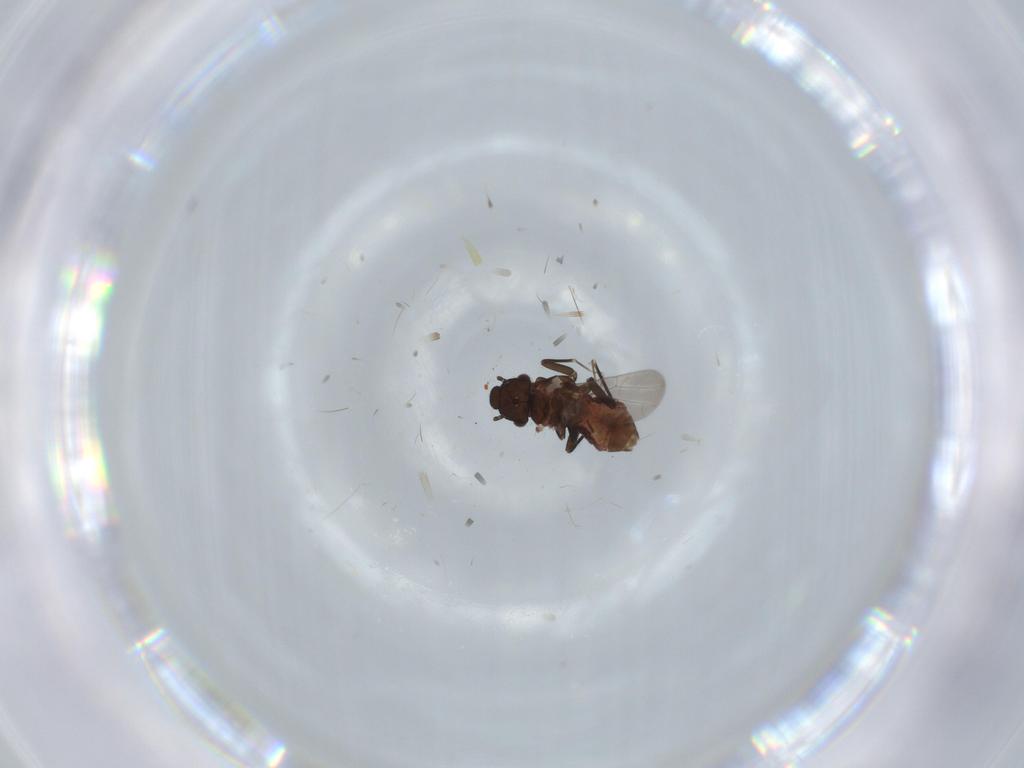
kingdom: Animalia
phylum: Arthropoda
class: Insecta
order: Psocodea
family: Lepidopsocidae
